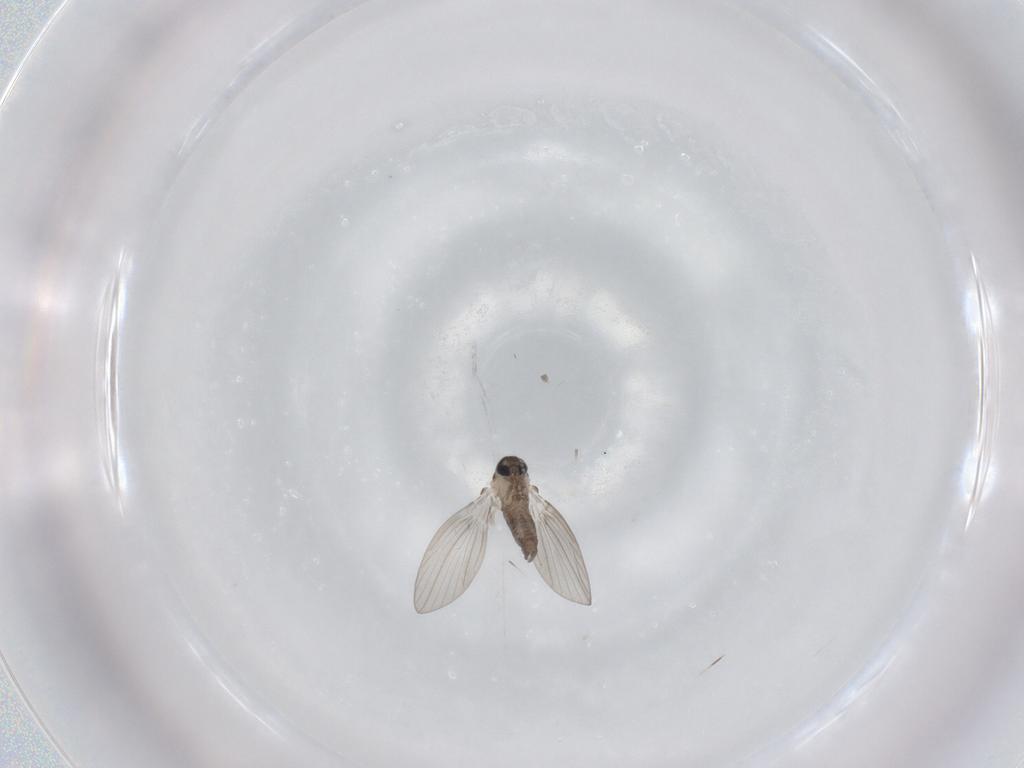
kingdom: Animalia
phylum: Arthropoda
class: Insecta
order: Diptera
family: Psychodidae
